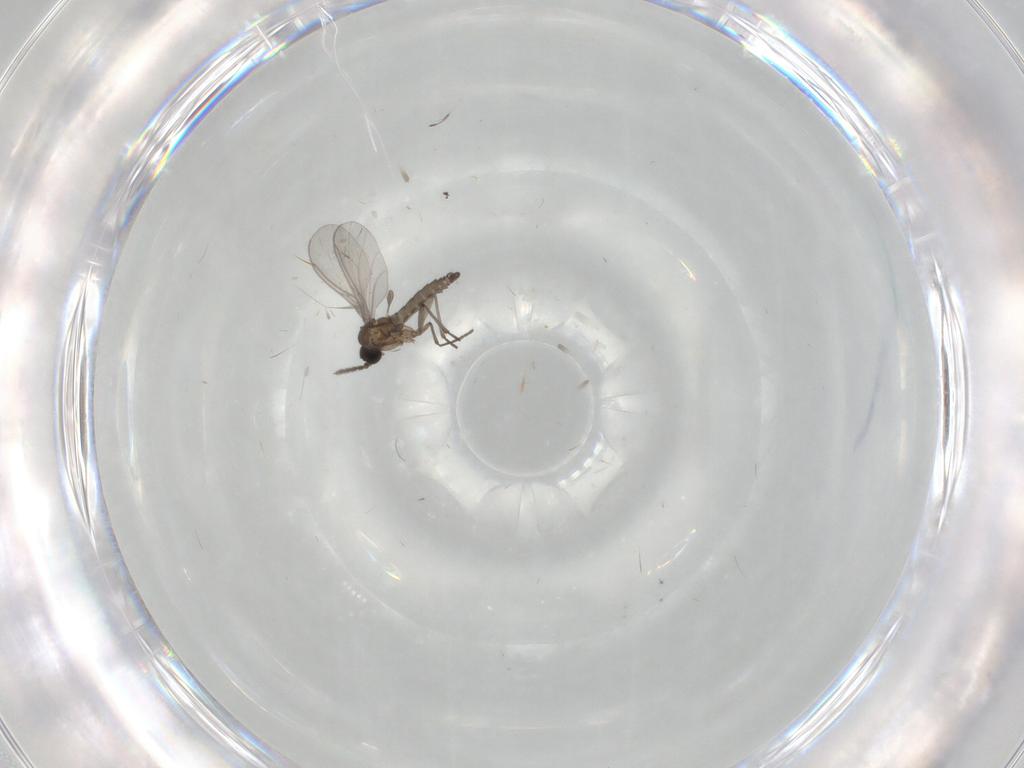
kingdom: Animalia
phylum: Arthropoda
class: Insecta
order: Diptera
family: Sciaridae
